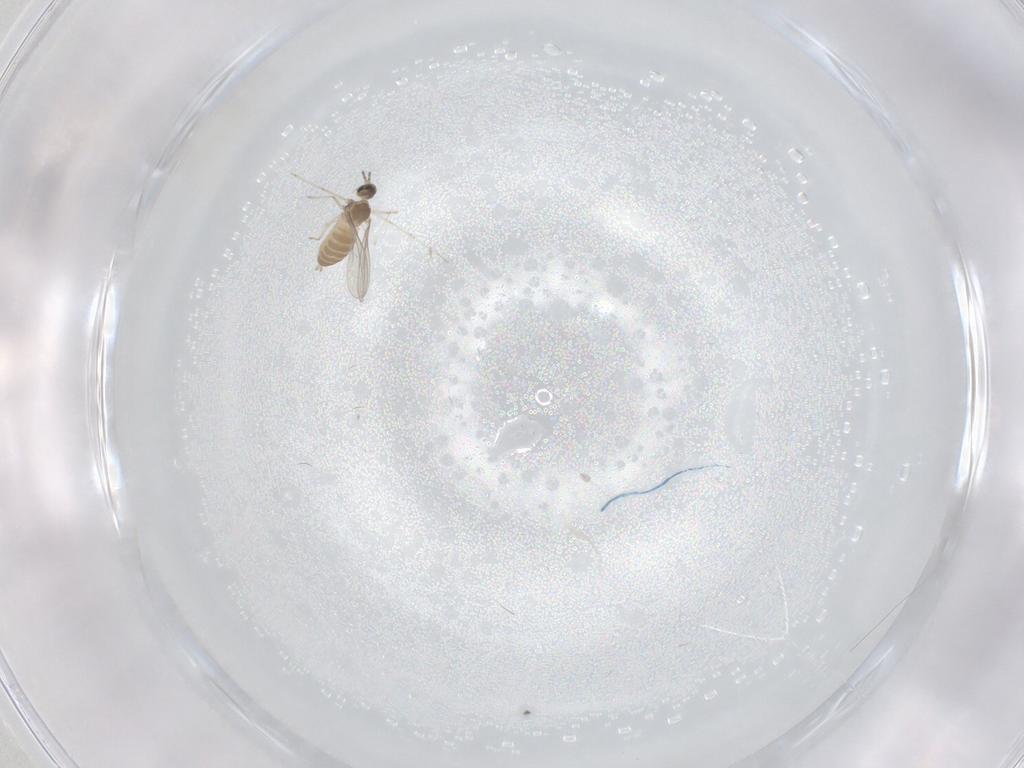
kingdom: Animalia
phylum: Arthropoda
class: Insecta
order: Diptera
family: Cecidomyiidae
